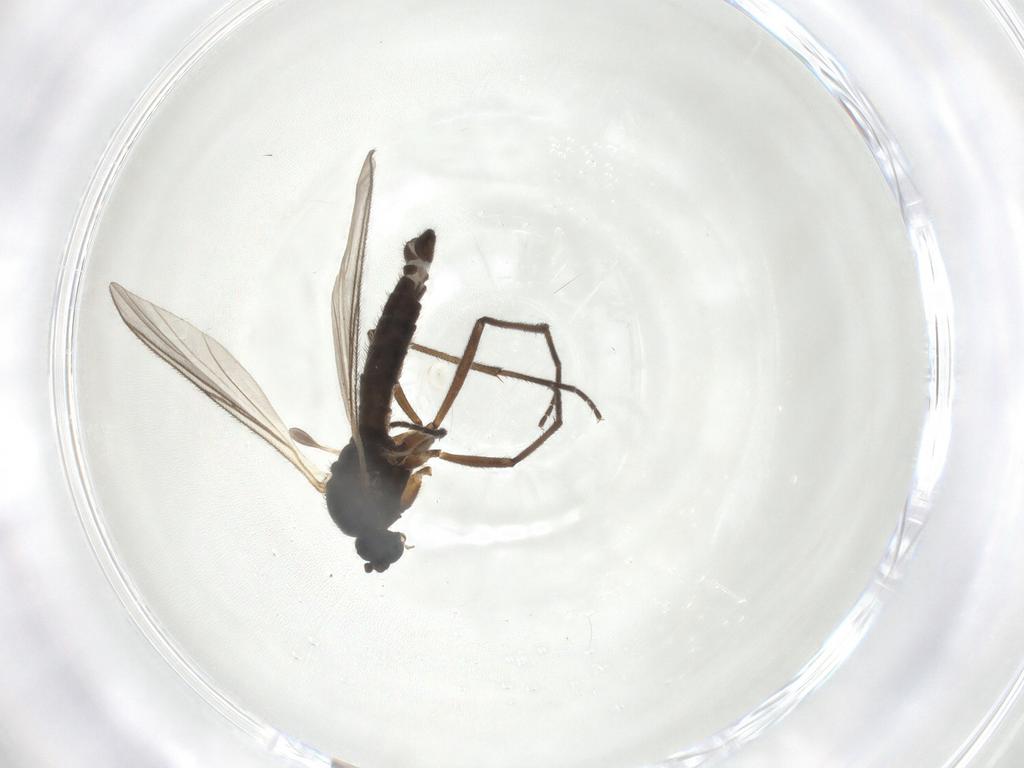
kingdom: Animalia
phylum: Arthropoda
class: Insecta
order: Diptera
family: Sciaridae
